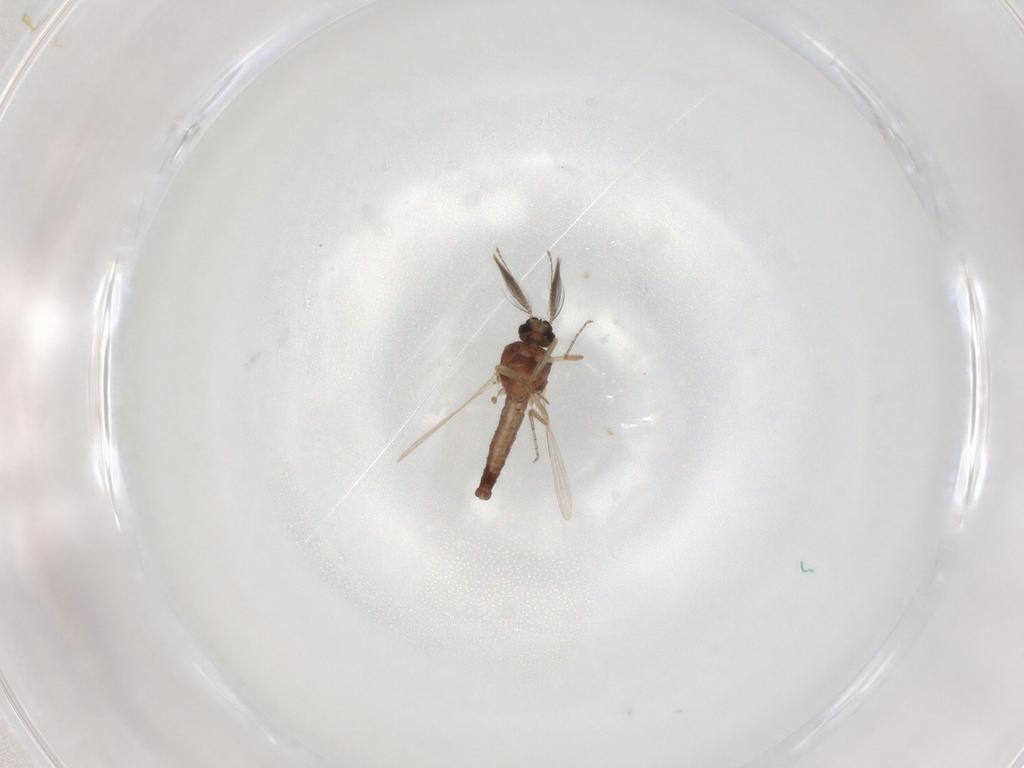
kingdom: Animalia
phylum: Arthropoda
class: Insecta
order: Diptera
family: Ceratopogonidae
